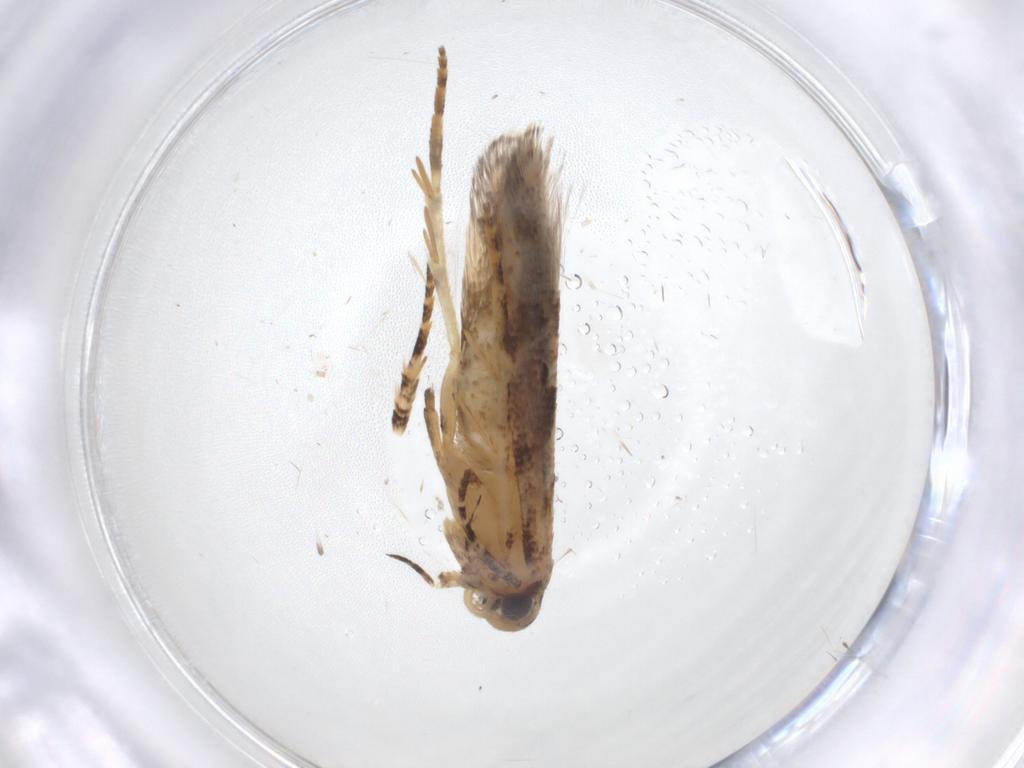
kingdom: Animalia
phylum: Arthropoda
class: Insecta
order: Lepidoptera
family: Gelechiidae
